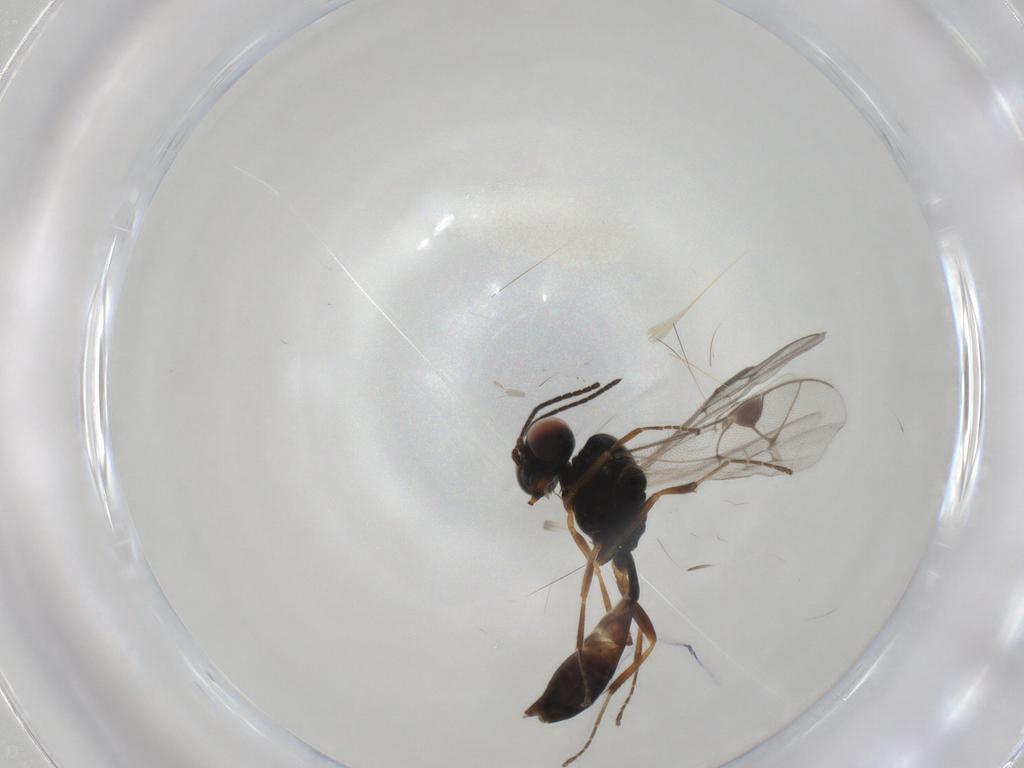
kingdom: Animalia
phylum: Arthropoda
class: Insecta
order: Hymenoptera
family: Ichneumonidae
